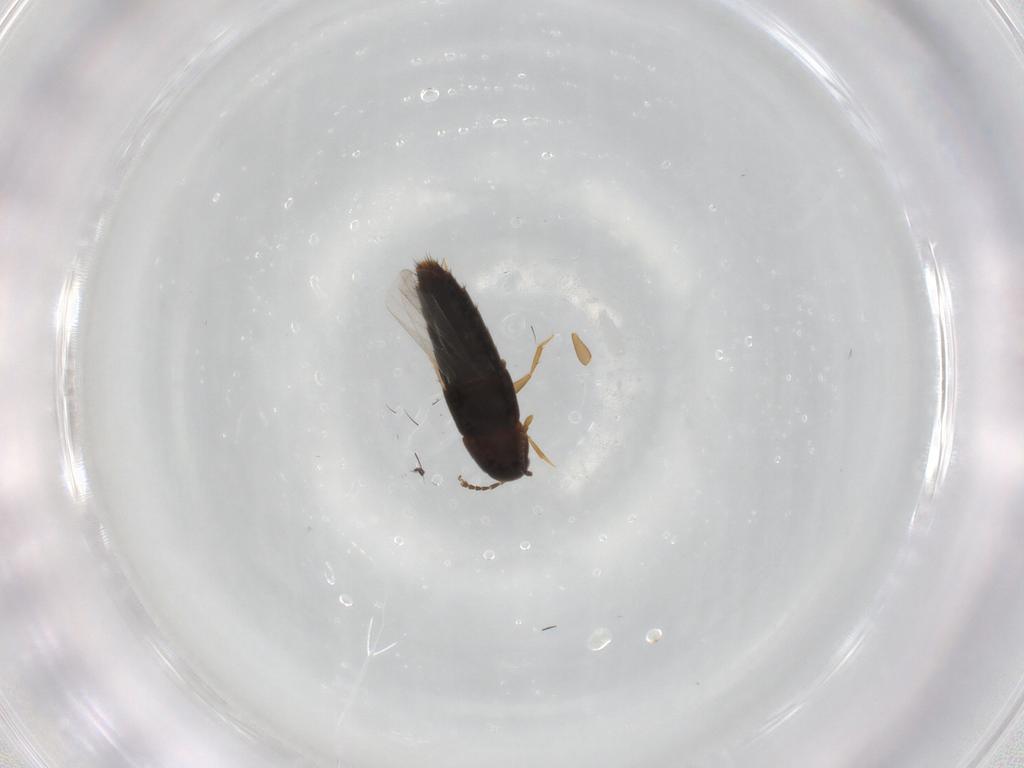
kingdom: Animalia
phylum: Arthropoda
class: Insecta
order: Coleoptera
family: Staphylinidae
